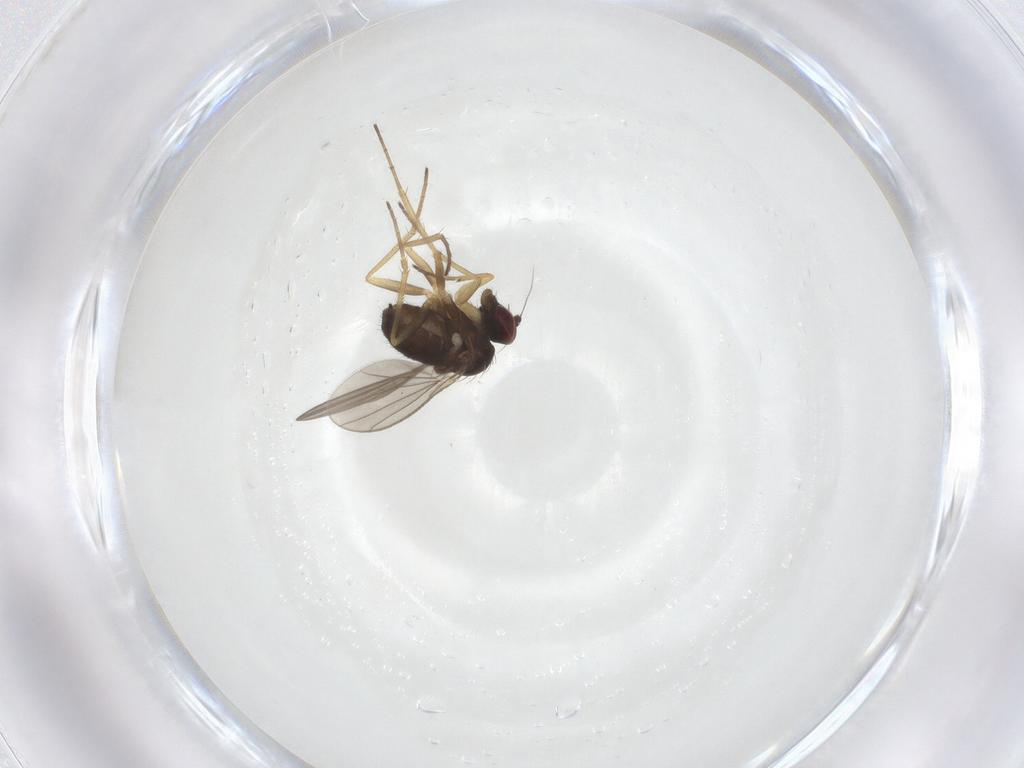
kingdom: Animalia
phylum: Arthropoda
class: Insecta
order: Diptera
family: Dolichopodidae
